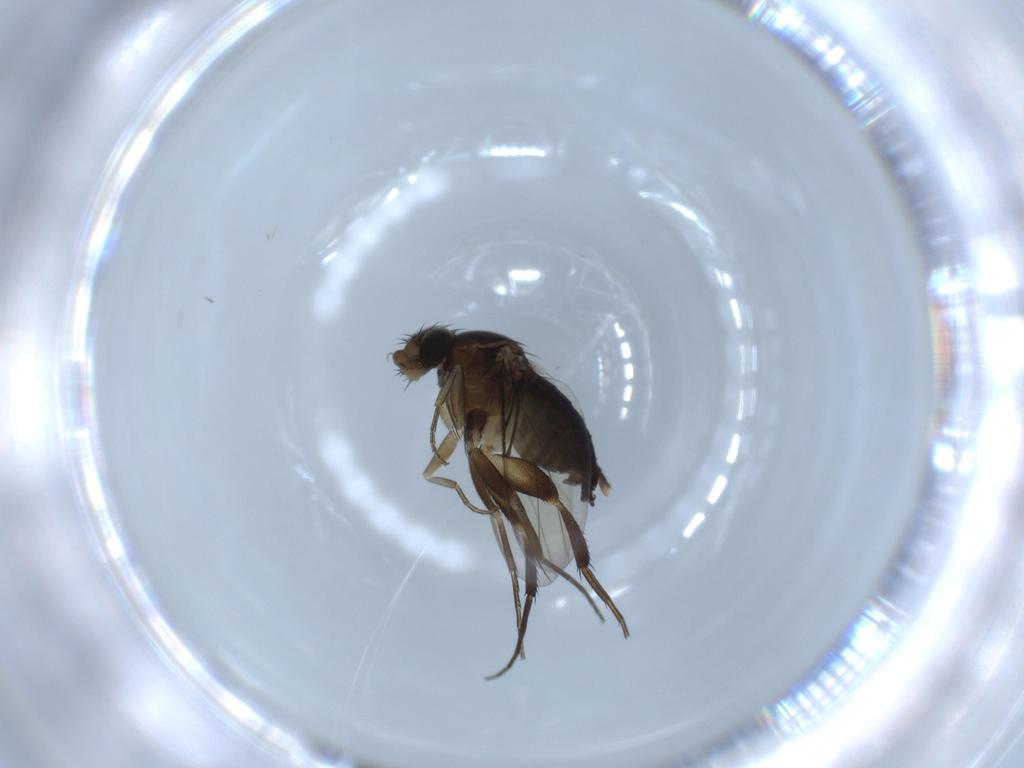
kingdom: Animalia
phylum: Arthropoda
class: Insecta
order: Diptera
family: Phoridae
